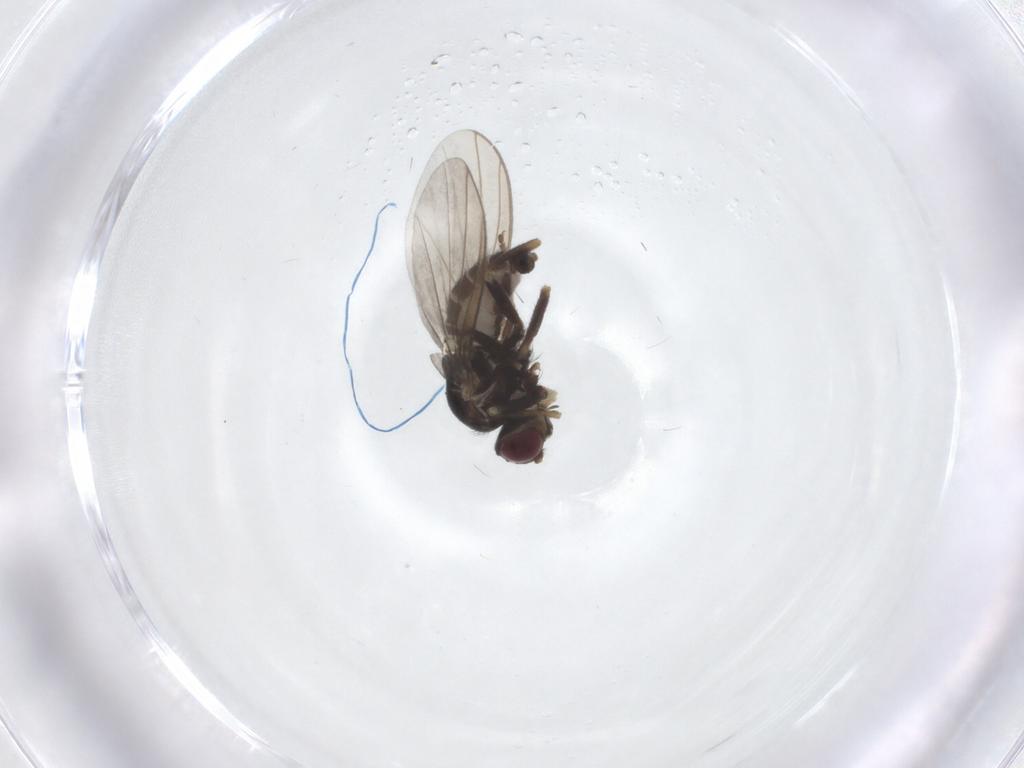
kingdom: Animalia
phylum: Arthropoda
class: Insecta
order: Diptera
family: Agromyzidae
